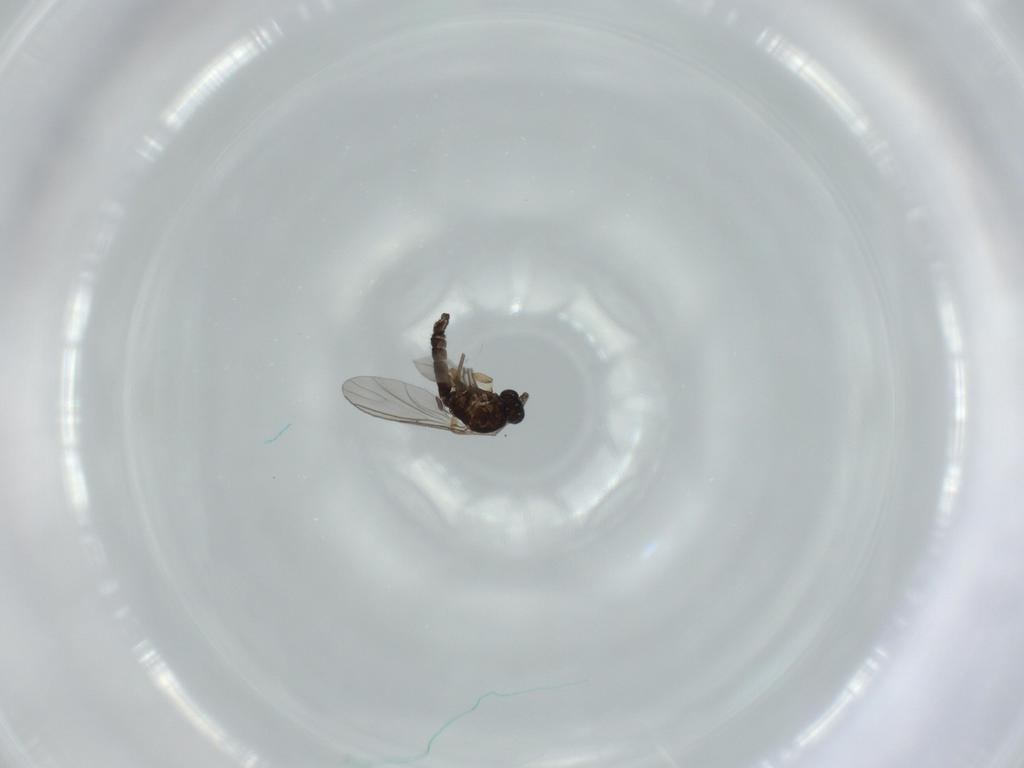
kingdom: Animalia
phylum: Arthropoda
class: Insecta
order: Diptera
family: Sciaridae
